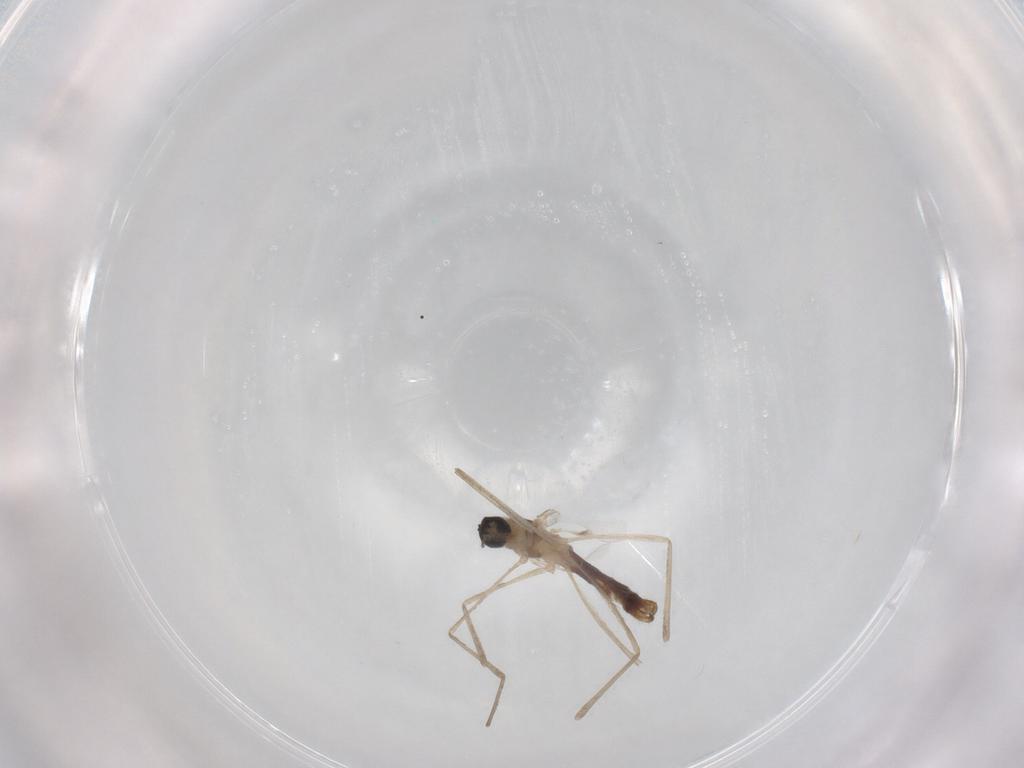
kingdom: Animalia
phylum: Arthropoda
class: Insecta
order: Diptera
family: Cecidomyiidae
